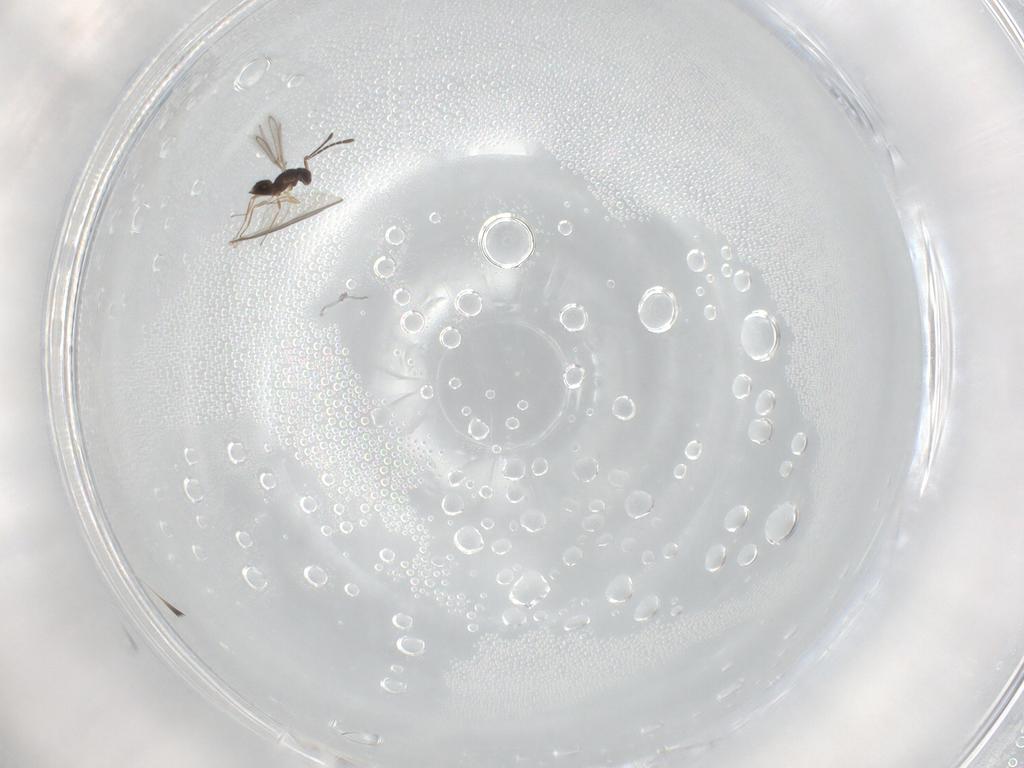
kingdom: Animalia
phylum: Arthropoda
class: Insecta
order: Hymenoptera
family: Mymaridae
